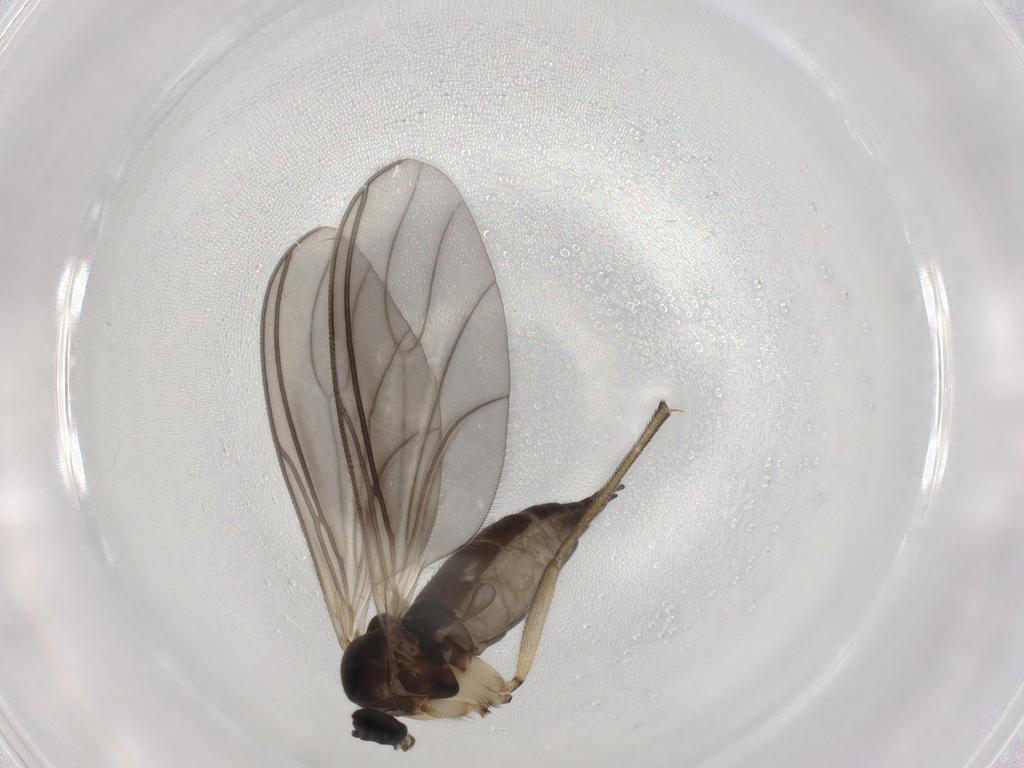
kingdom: Animalia
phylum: Arthropoda
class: Insecta
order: Diptera
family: Sciaridae
